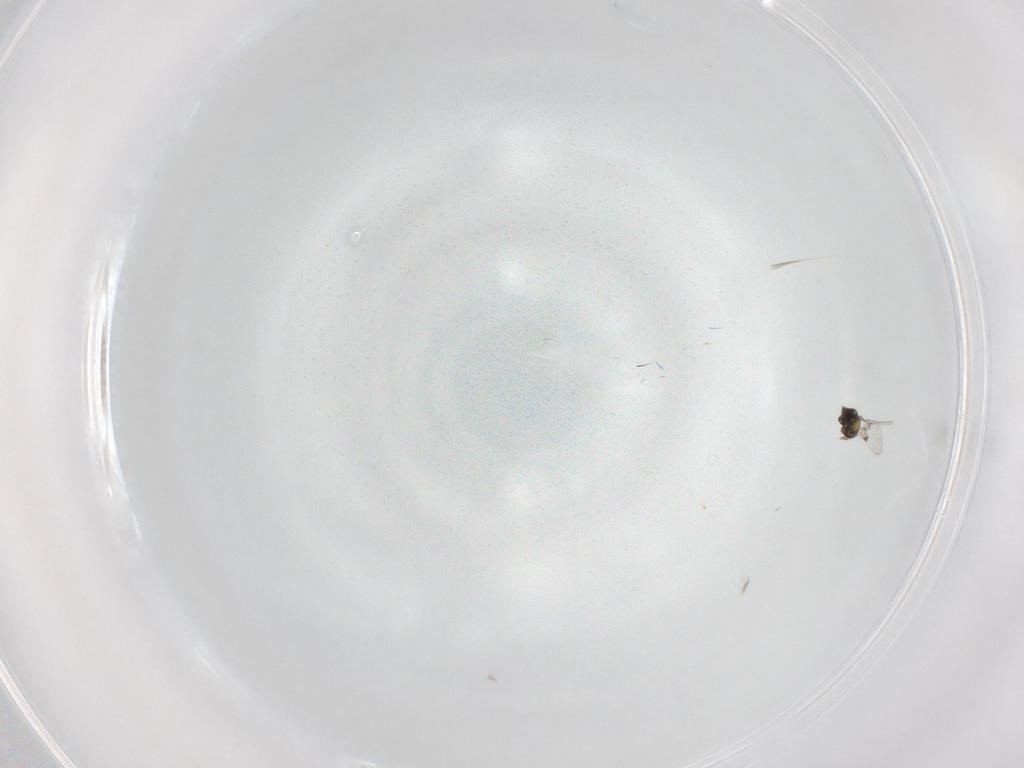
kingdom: Animalia
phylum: Arthropoda
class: Insecta
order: Hymenoptera
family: Trichogrammatidae
